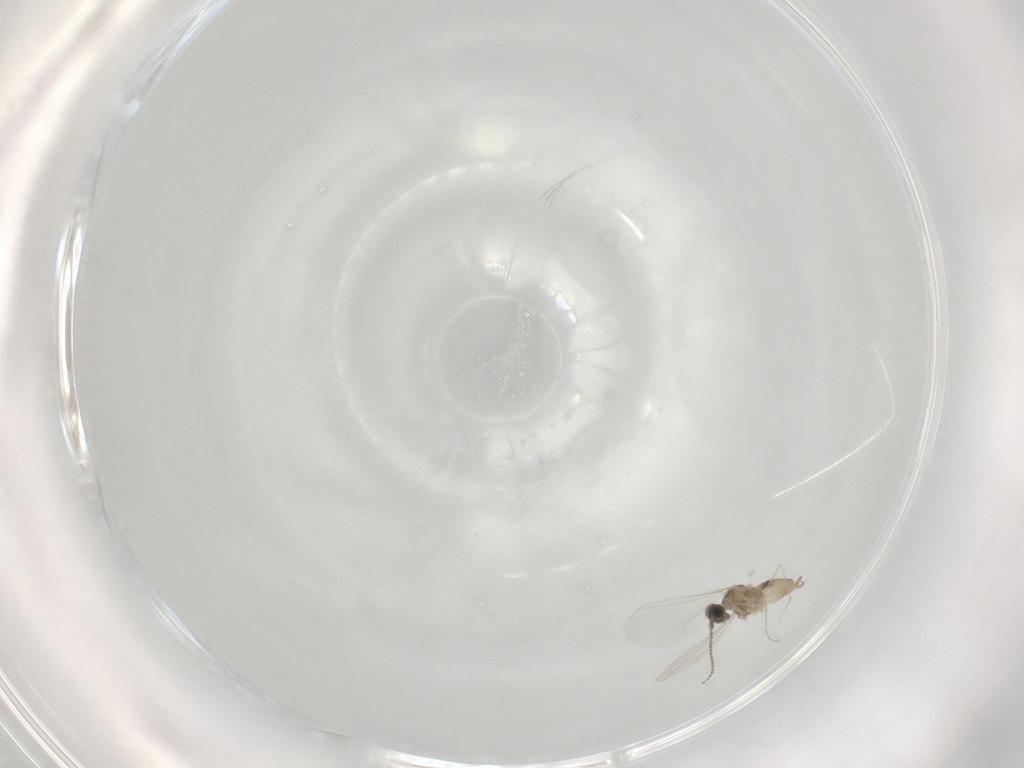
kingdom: Animalia
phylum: Arthropoda
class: Insecta
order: Diptera
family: Cecidomyiidae
